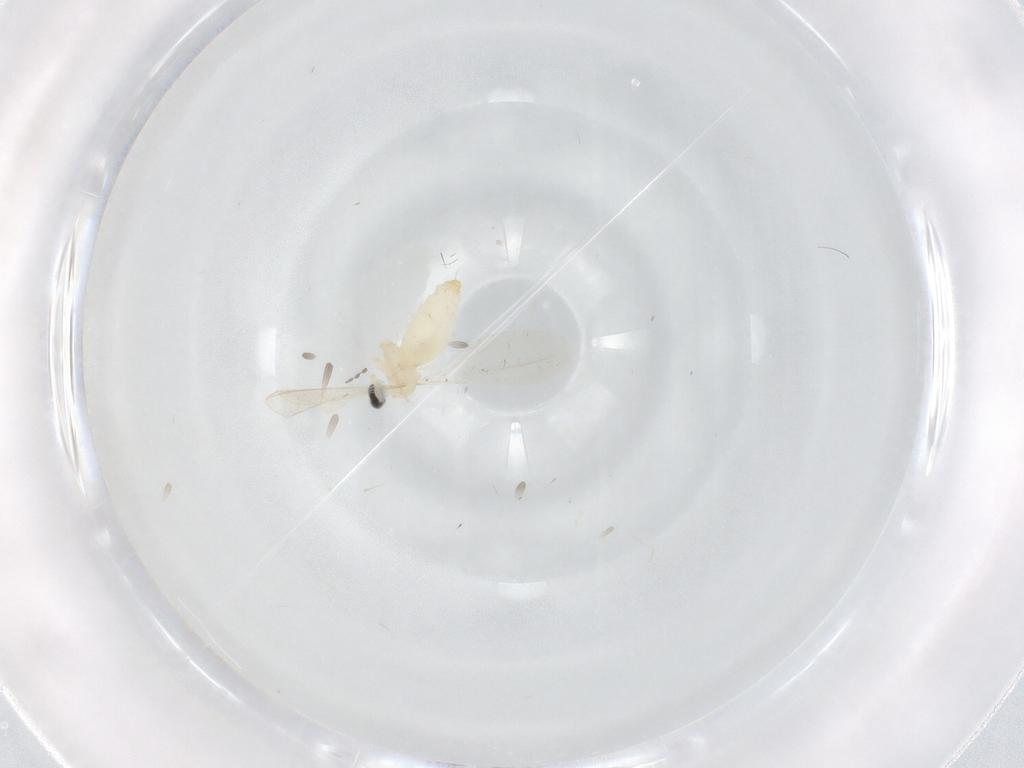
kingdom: Animalia
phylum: Arthropoda
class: Insecta
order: Diptera
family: Cecidomyiidae
